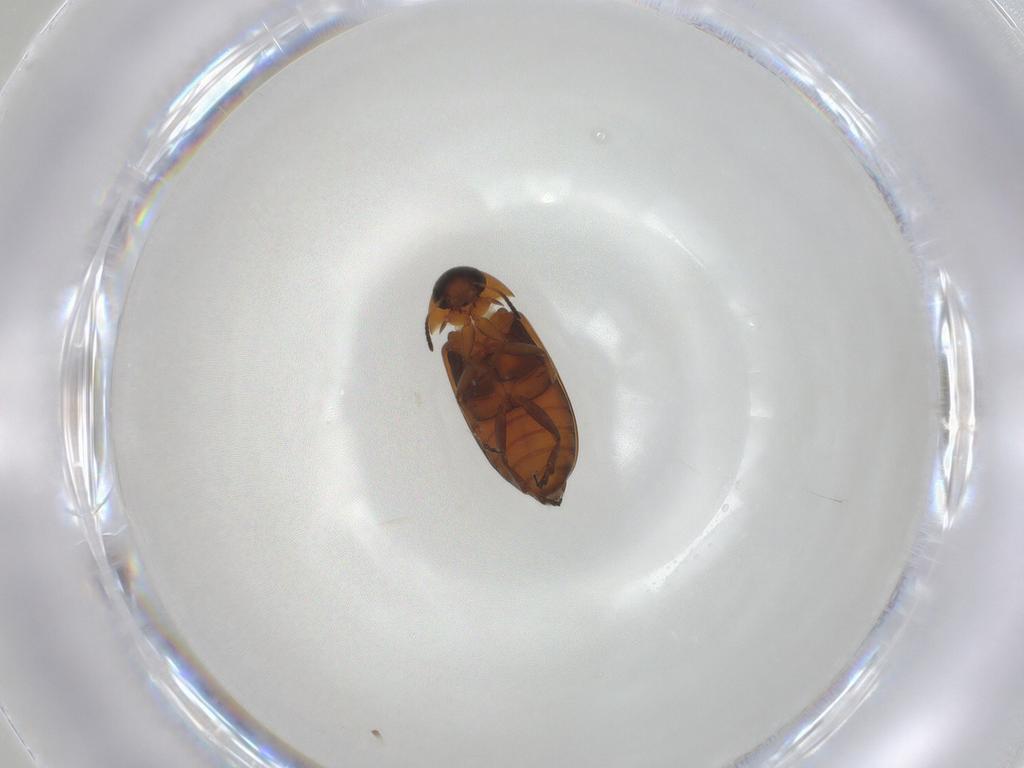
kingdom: Animalia
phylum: Arthropoda
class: Insecta
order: Coleoptera
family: Scraptiidae
